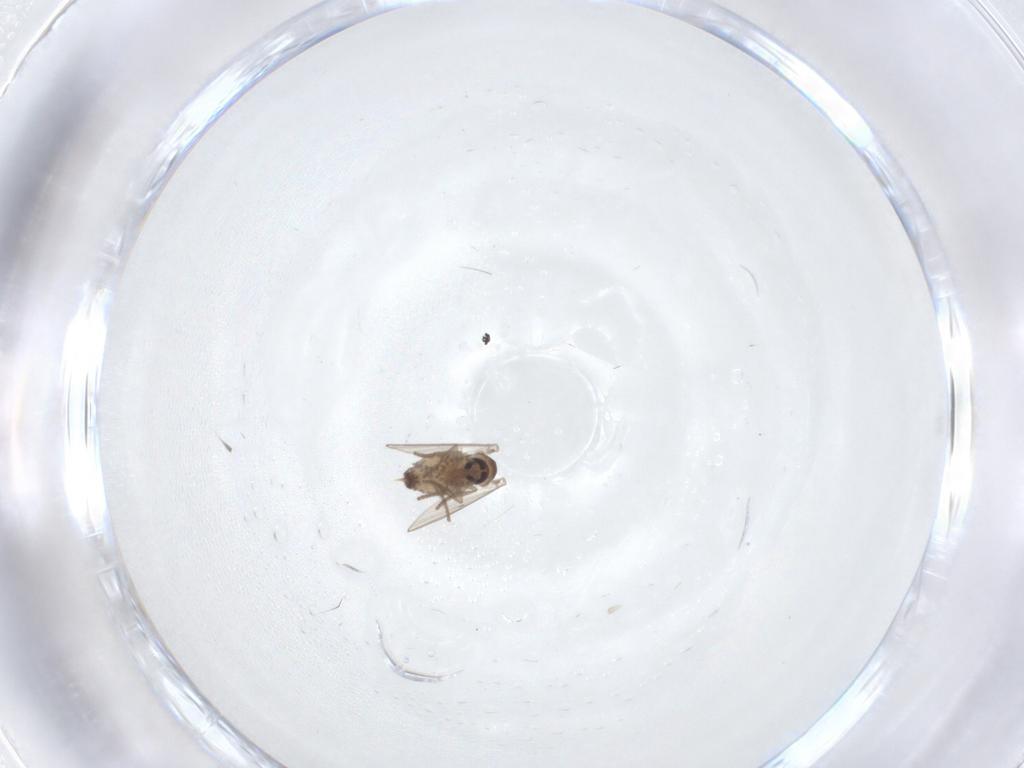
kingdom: Animalia
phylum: Arthropoda
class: Insecta
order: Diptera
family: Psychodidae
